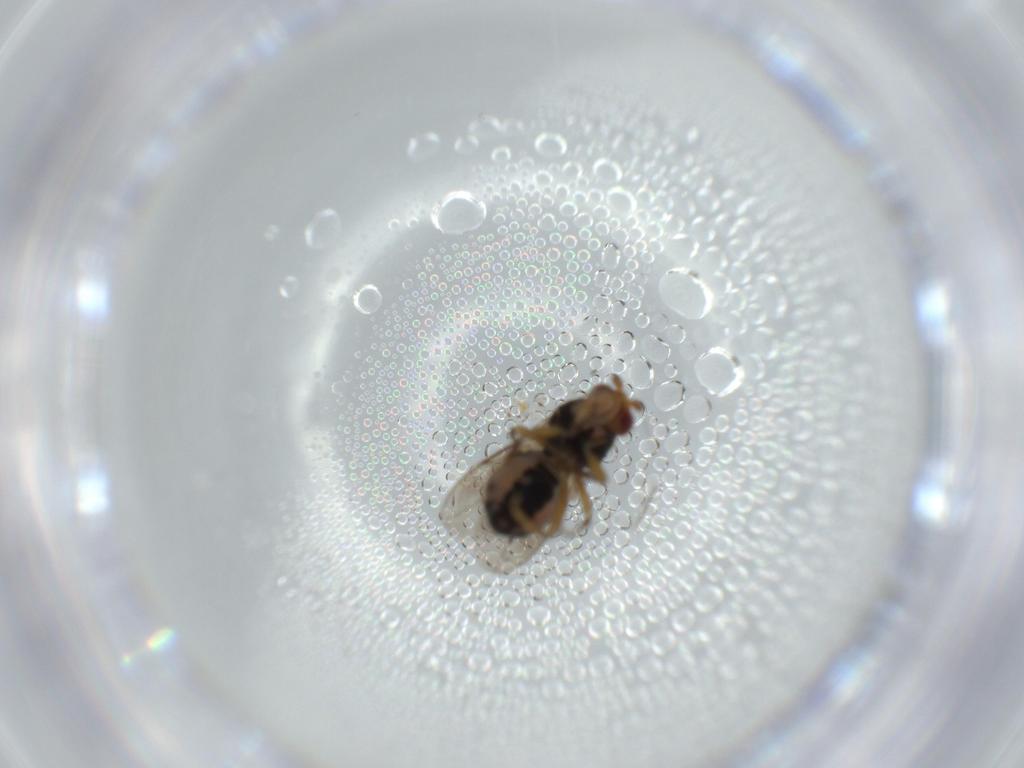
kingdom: Animalia
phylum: Arthropoda
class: Insecta
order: Diptera
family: Sphaeroceridae
